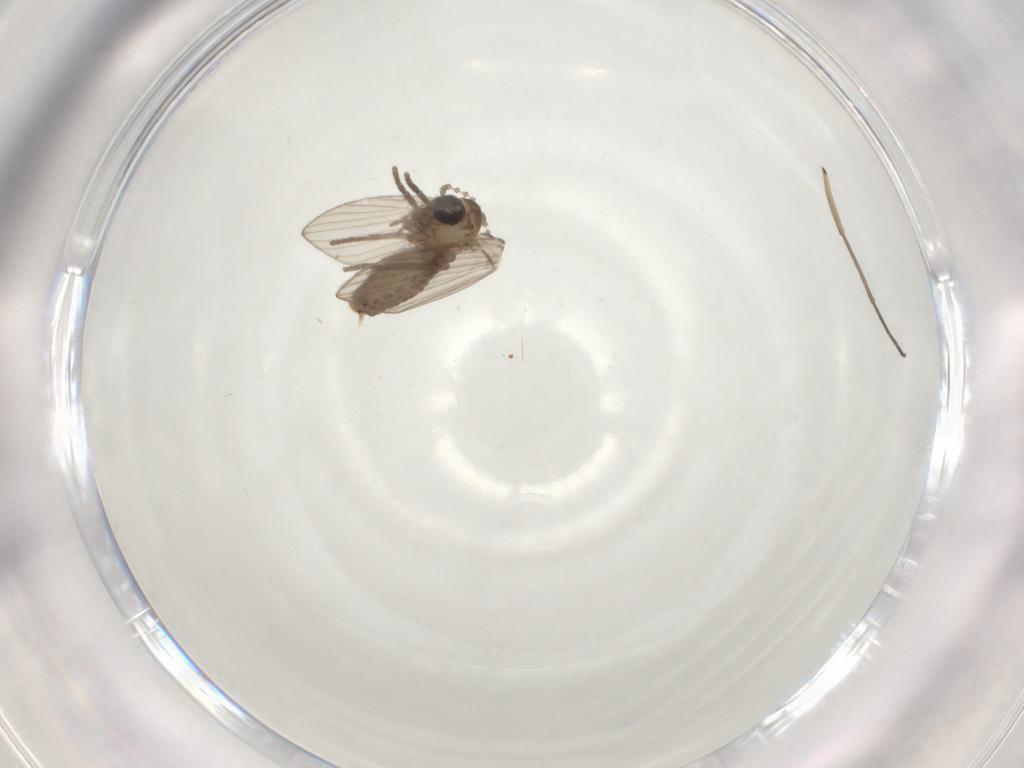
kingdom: Animalia
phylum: Arthropoda
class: Insecta
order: Diptera
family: Psychodidae
